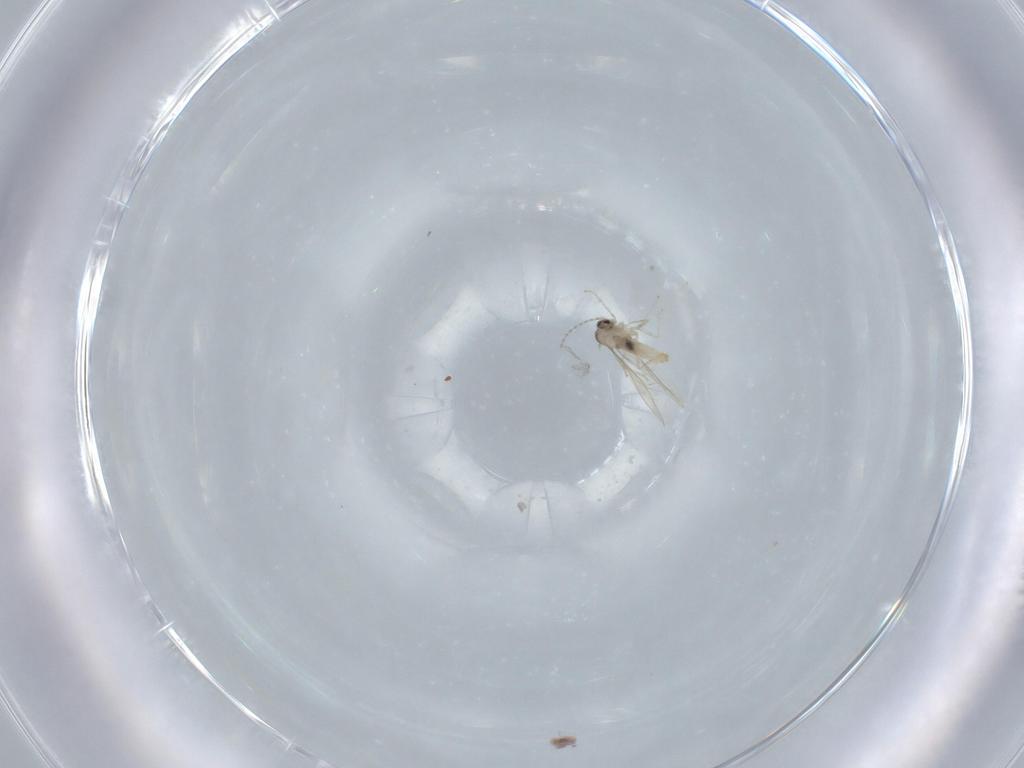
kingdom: Animalia
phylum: Arthropoda
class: Insecta
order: Diptera
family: Cecidomyiidae
